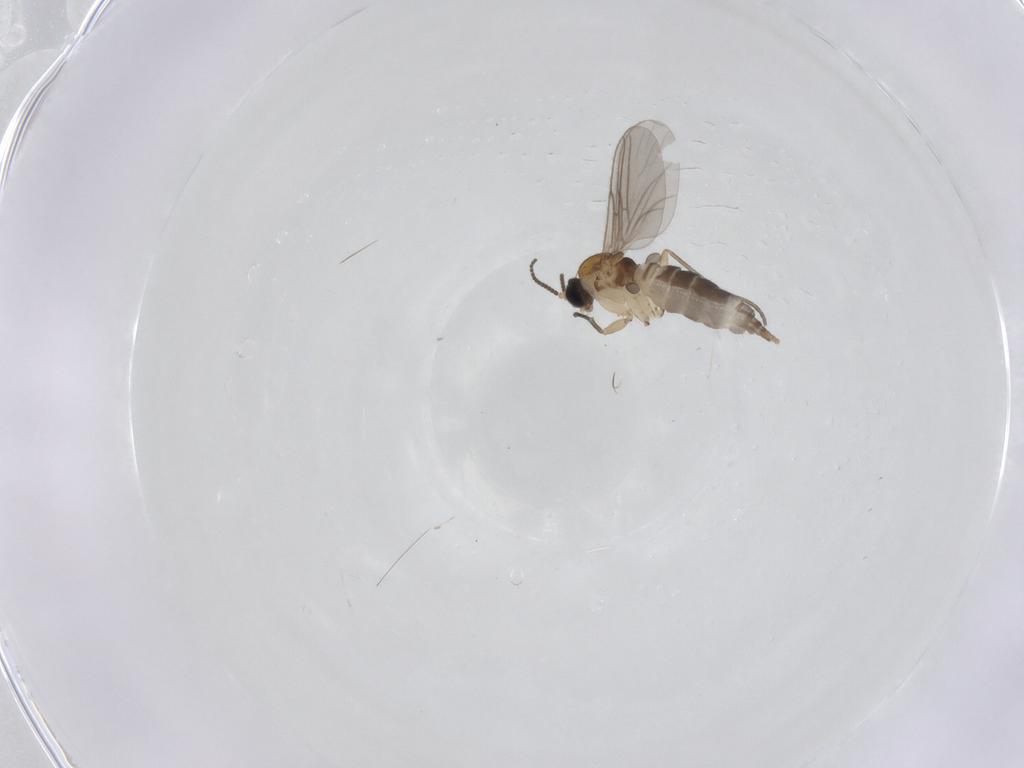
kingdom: Animalia
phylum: Arthropoda
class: Insecta
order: Diptera
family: Sciaridae
